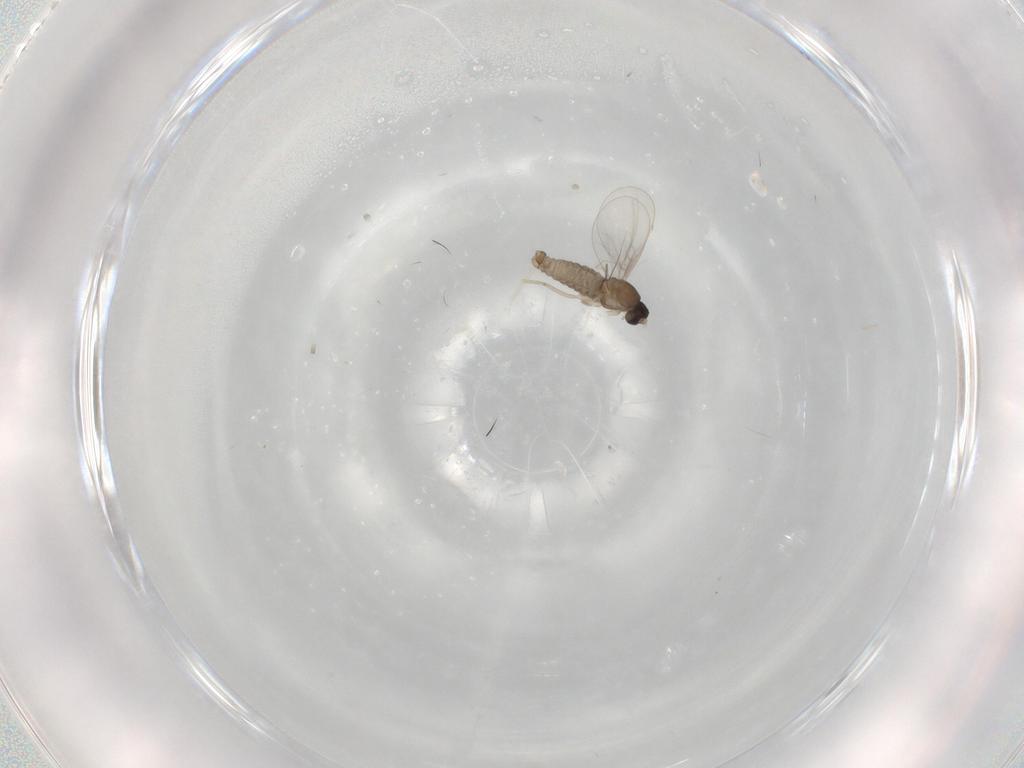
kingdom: Animalia
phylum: Arthropoda
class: Insecta
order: Diptera
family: Cecidomyiidae
